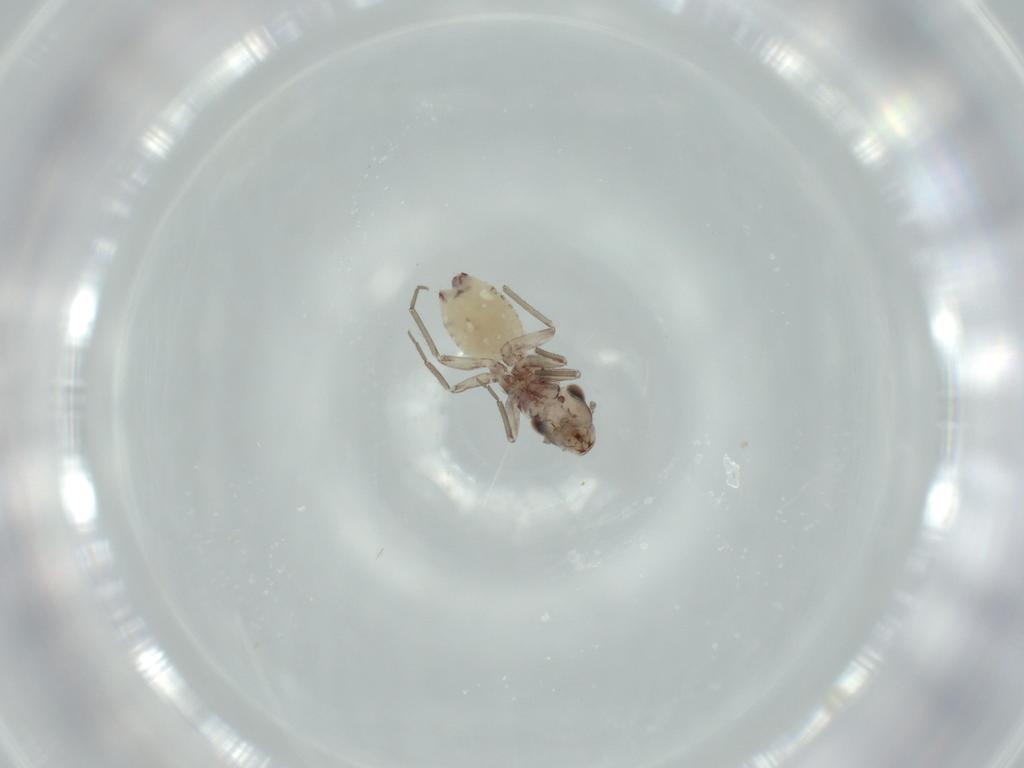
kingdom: Animalia
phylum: Arthropoda
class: Insecta
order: Psocodea
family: Lepidopsocidae
